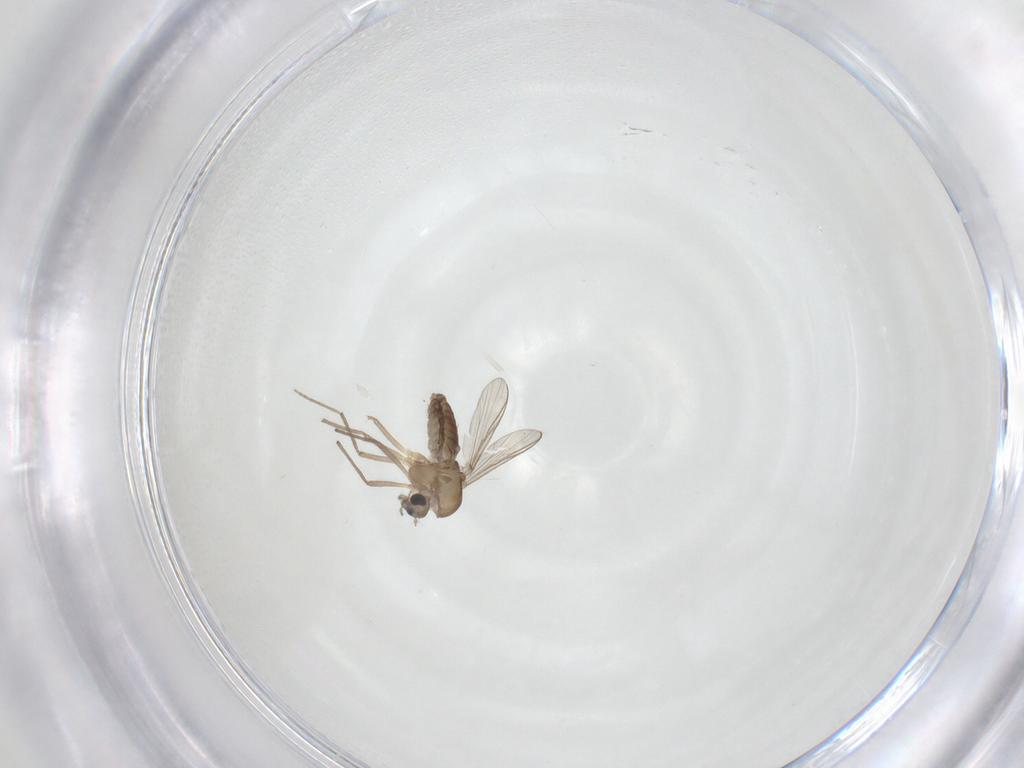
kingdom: Animalia
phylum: Arthropoda
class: Insecta
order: Diptera
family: Chironomidae
